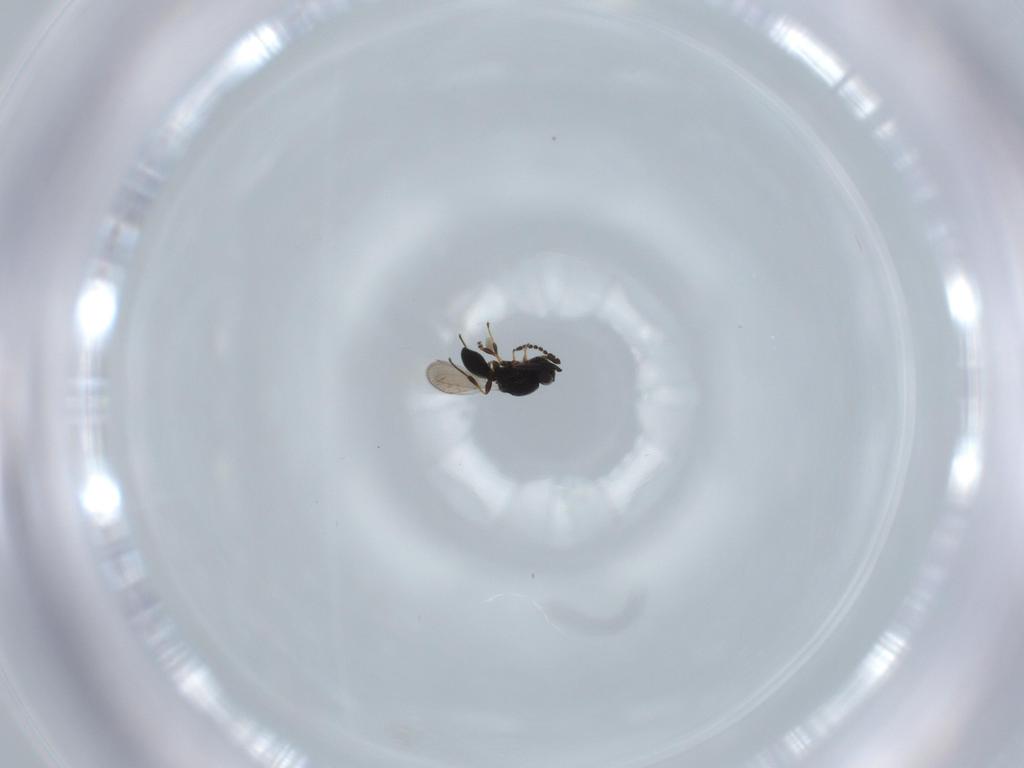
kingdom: Animalia
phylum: Arthropoda
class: Insecta
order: Hymenoptera
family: Platygastridae
